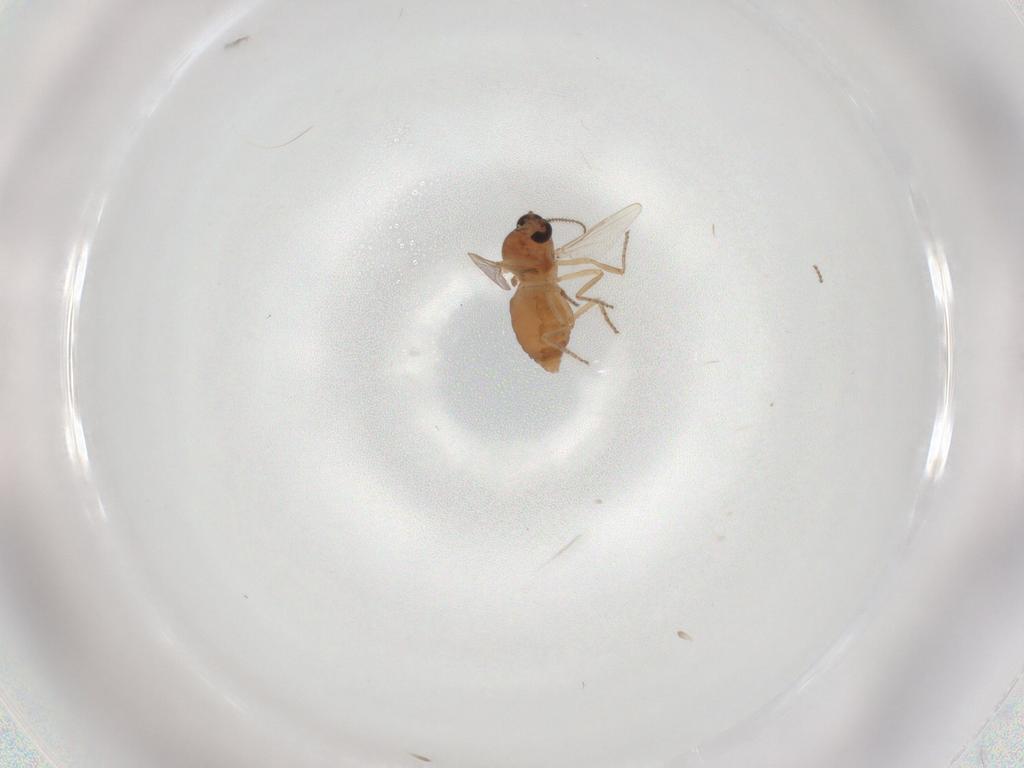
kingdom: Animalia
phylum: Arthropoda
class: Insecta
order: Diptera
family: Ceratopogonidae
